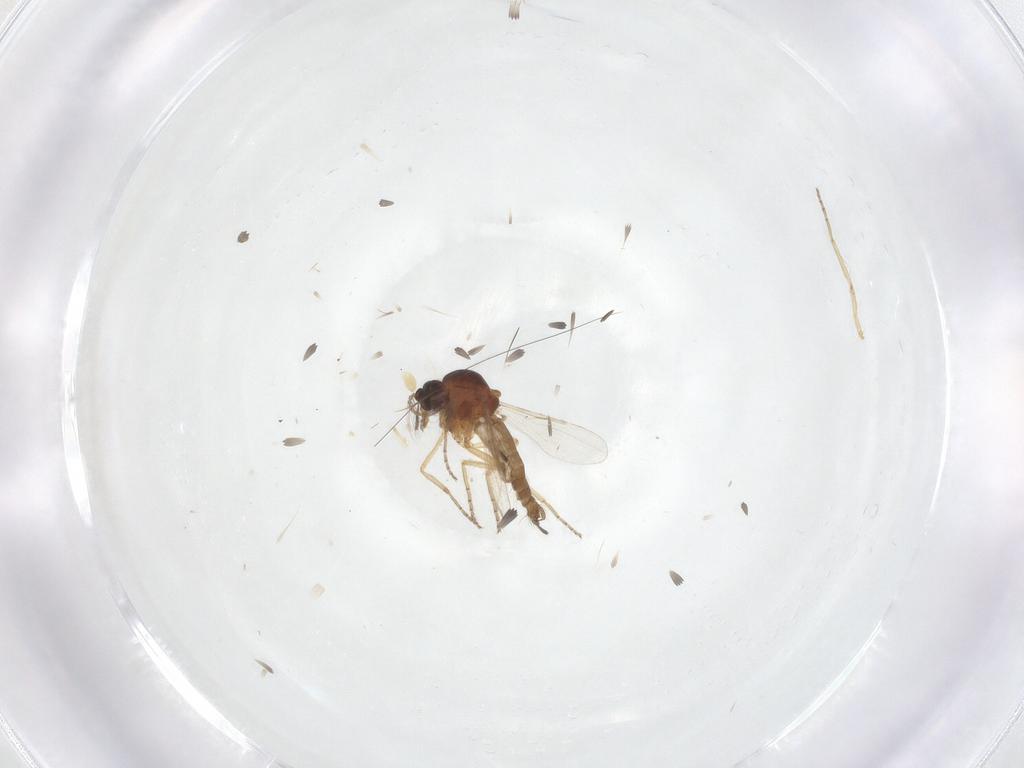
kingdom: Animalia
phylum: Arthropoda
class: Insecta
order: Diptera
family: Ceratopogonidae
